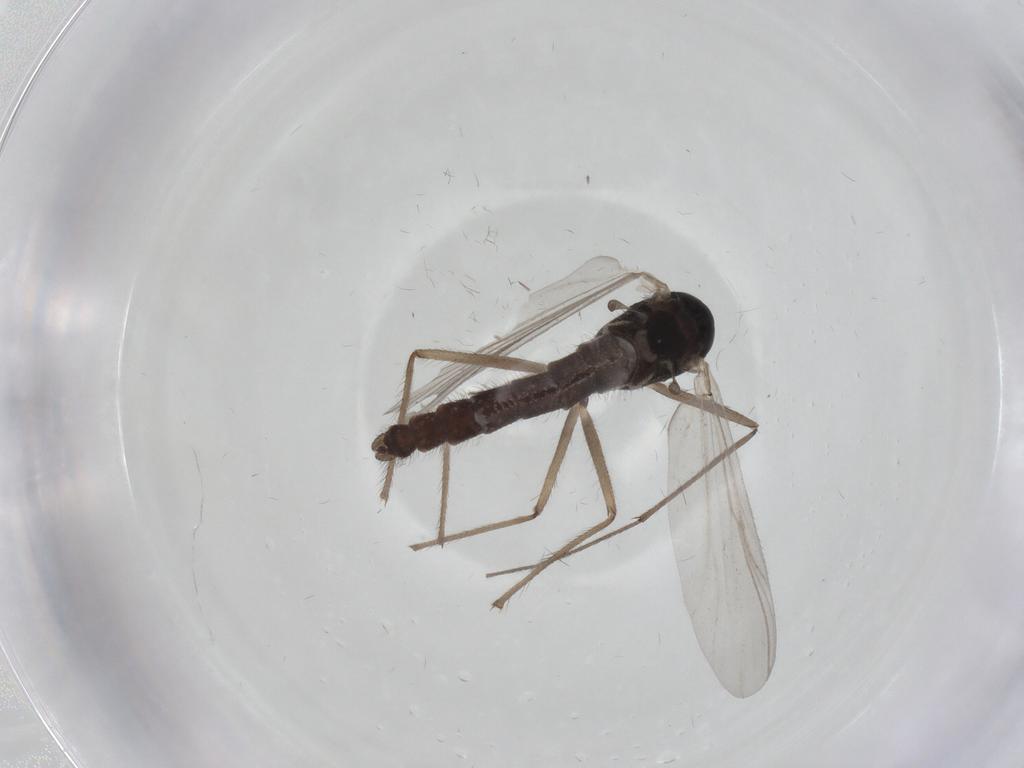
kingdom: Animalia
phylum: Arthropoda
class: Insecta
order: Diptera
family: Chironomidae
